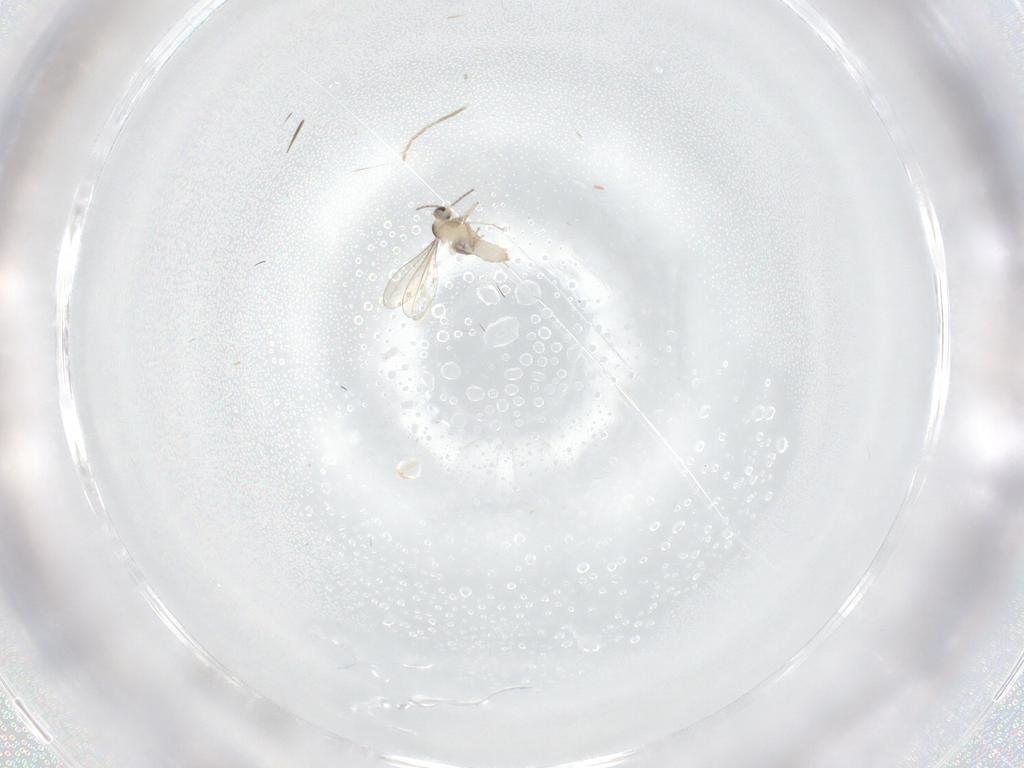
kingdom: Animalia
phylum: Arthropoda
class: Insecta
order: Diptera
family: Cecidomyiidae
